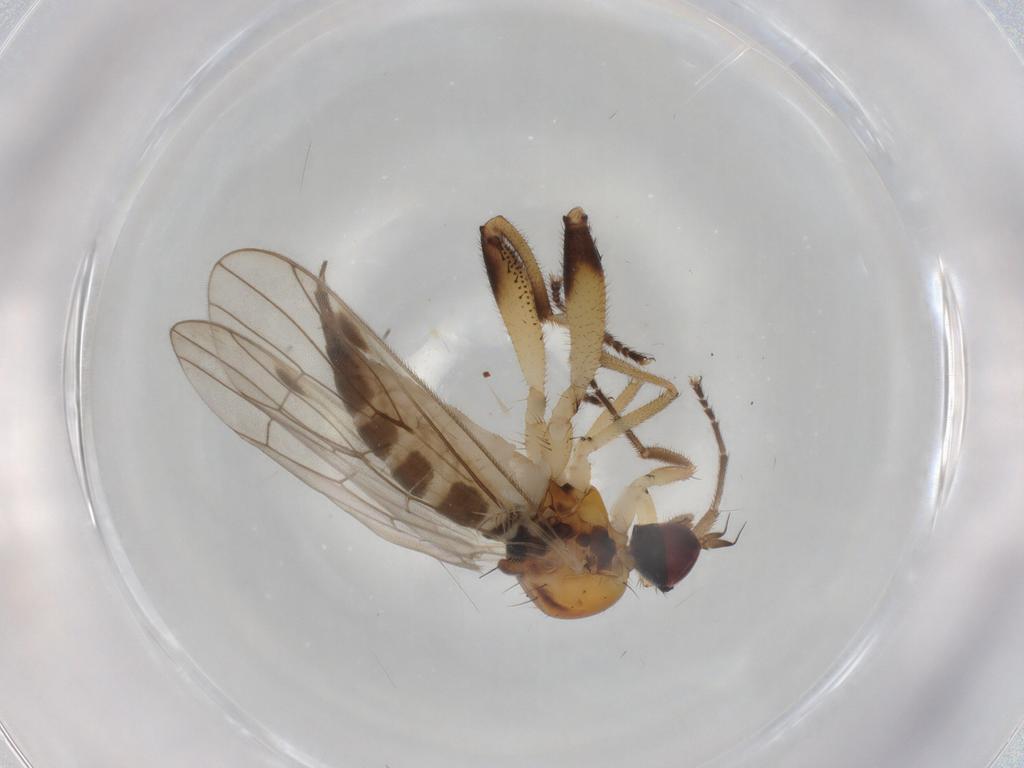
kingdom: Animalia
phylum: Arthropoda
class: Insecta
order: Diptera
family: Hybotidae
